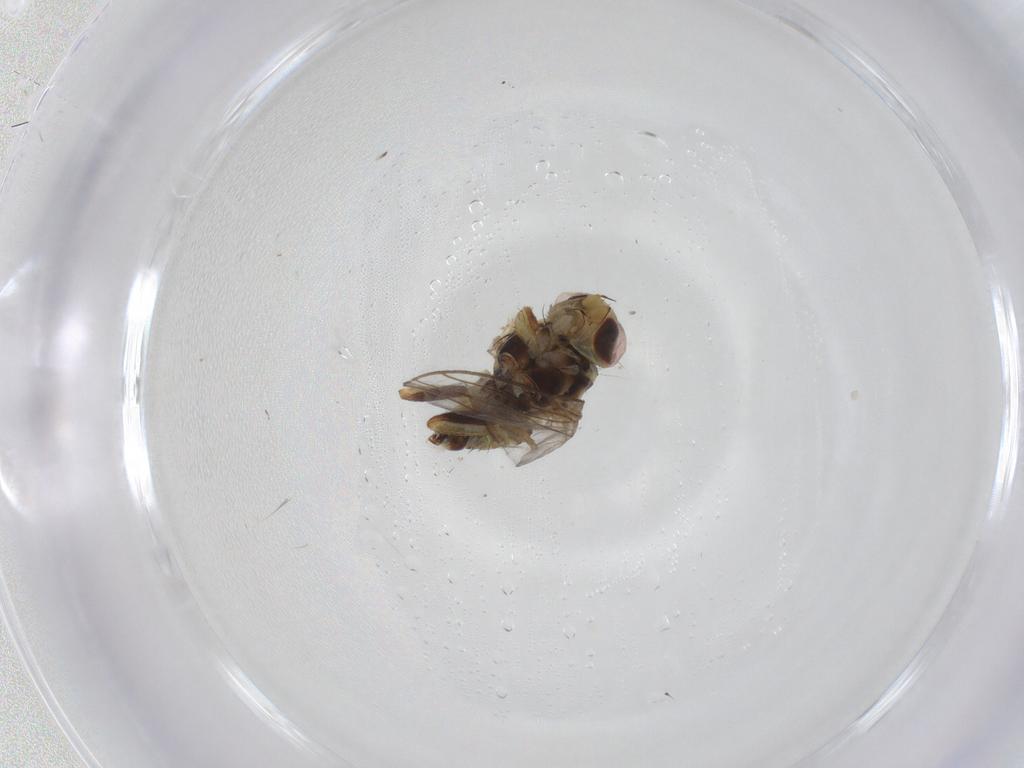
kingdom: Animalia
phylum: Arthropoda
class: Insecta
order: Diptera
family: Agromyzidae
